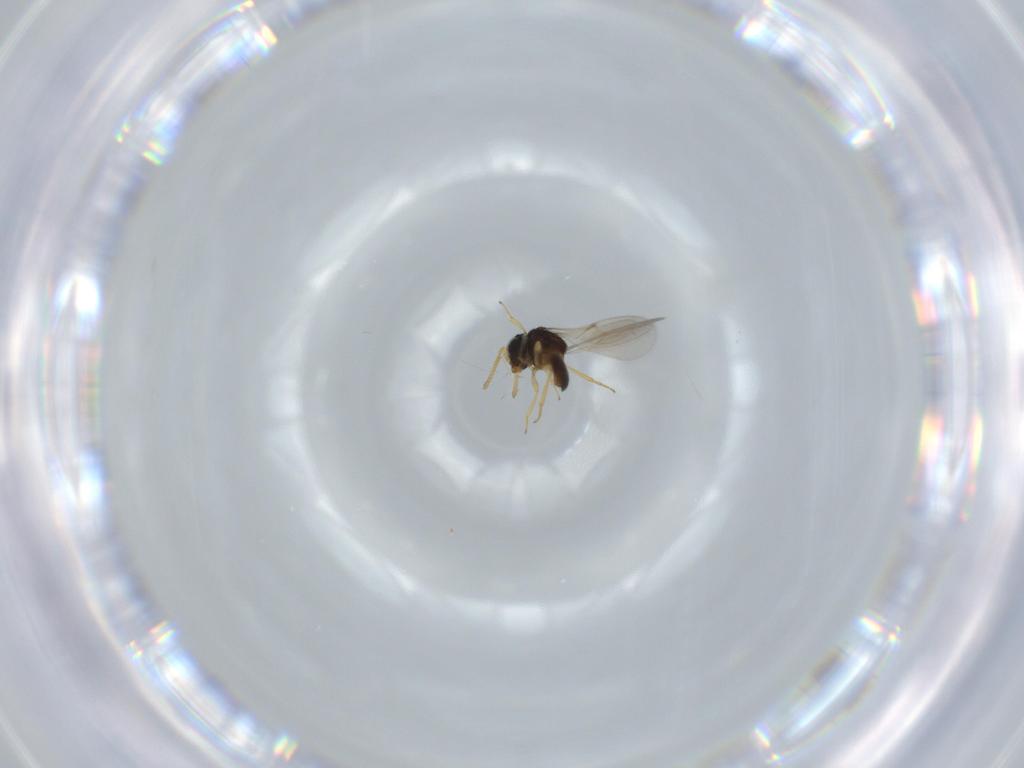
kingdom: Animalia
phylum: Arthropoda
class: Insecta
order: Hymenoptera
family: Scelionidae
